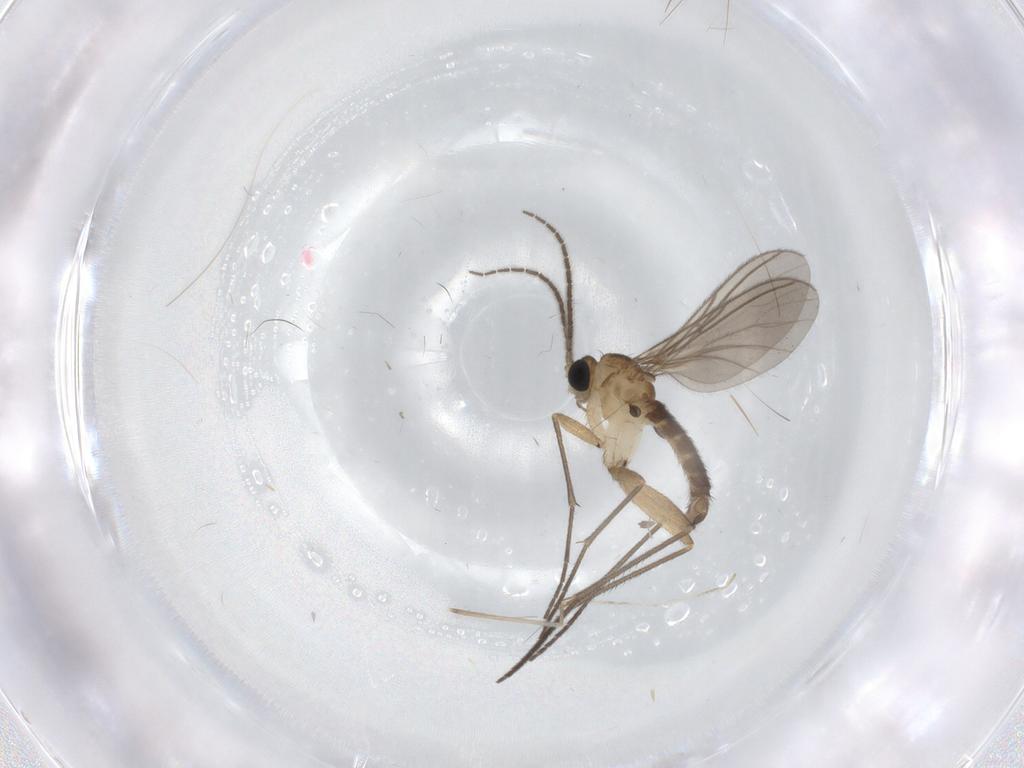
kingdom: Animalia
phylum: Arthropoda
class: Insecta
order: Diptera
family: Sciaridae
